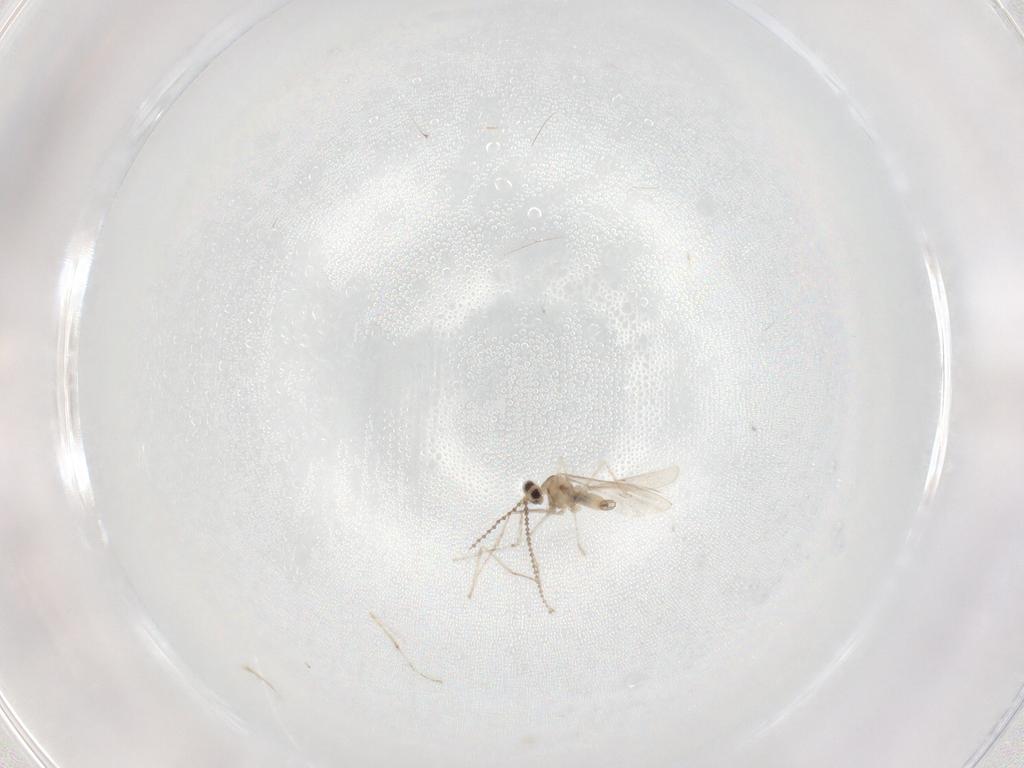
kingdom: Animalia
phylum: Arthropoda
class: Insecta
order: Diptera
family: Cecidomyiidae
